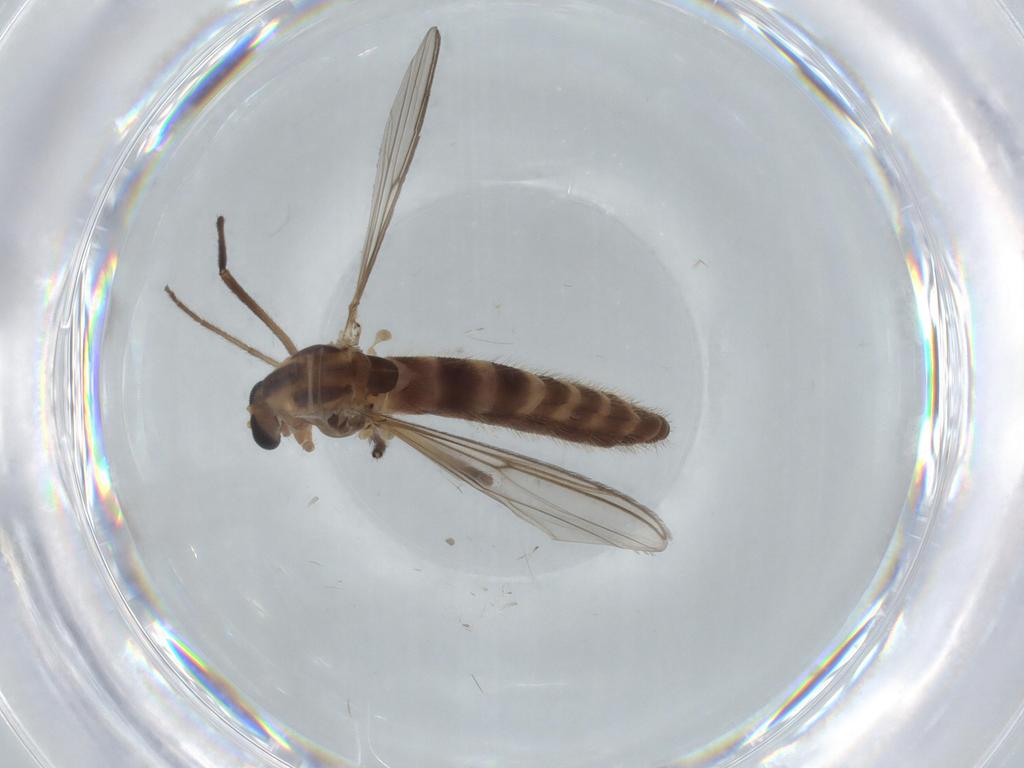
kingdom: Animalia
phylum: Arthropoda
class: Insecta
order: Diptera
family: Chironomidae
